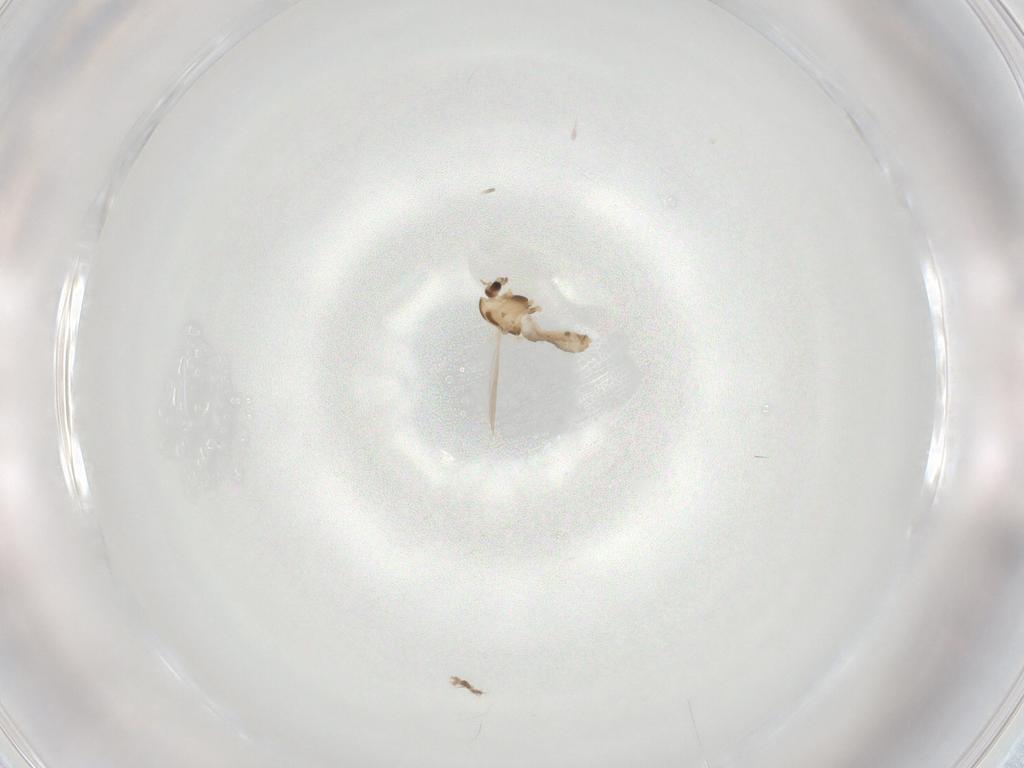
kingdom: Animalia
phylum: Arthropoda
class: Insecta
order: Diptera
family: Chironomidae
